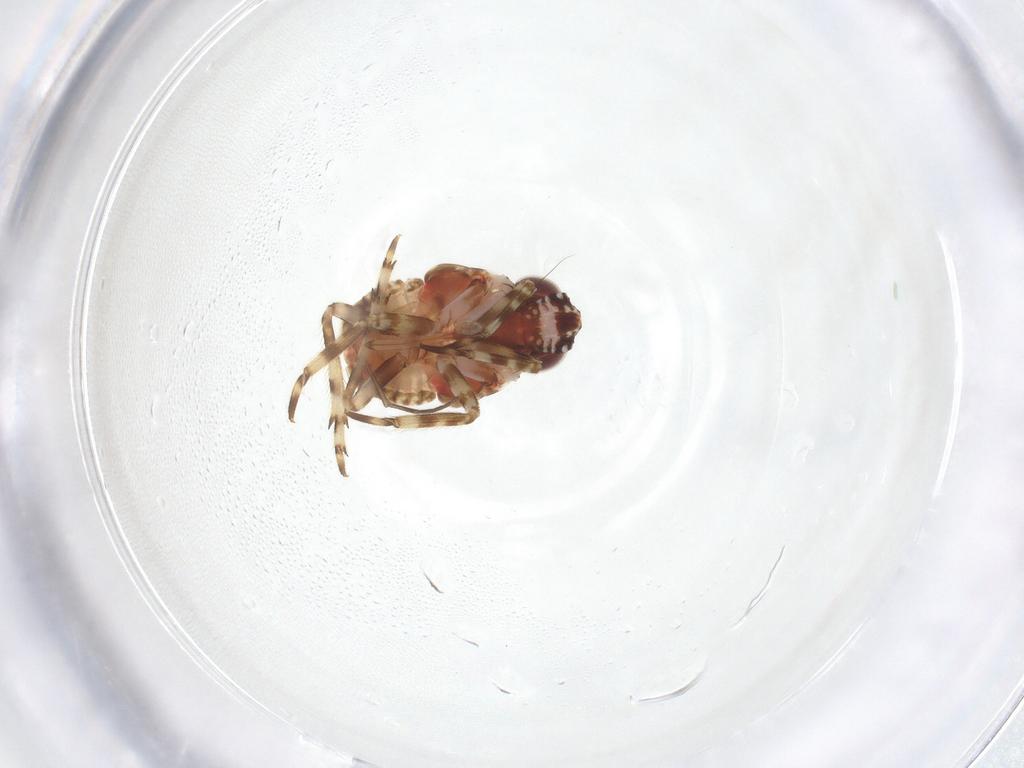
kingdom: Animalia
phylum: Arthropoda
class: Insecta
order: Hemiptera
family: Caliscelidae
